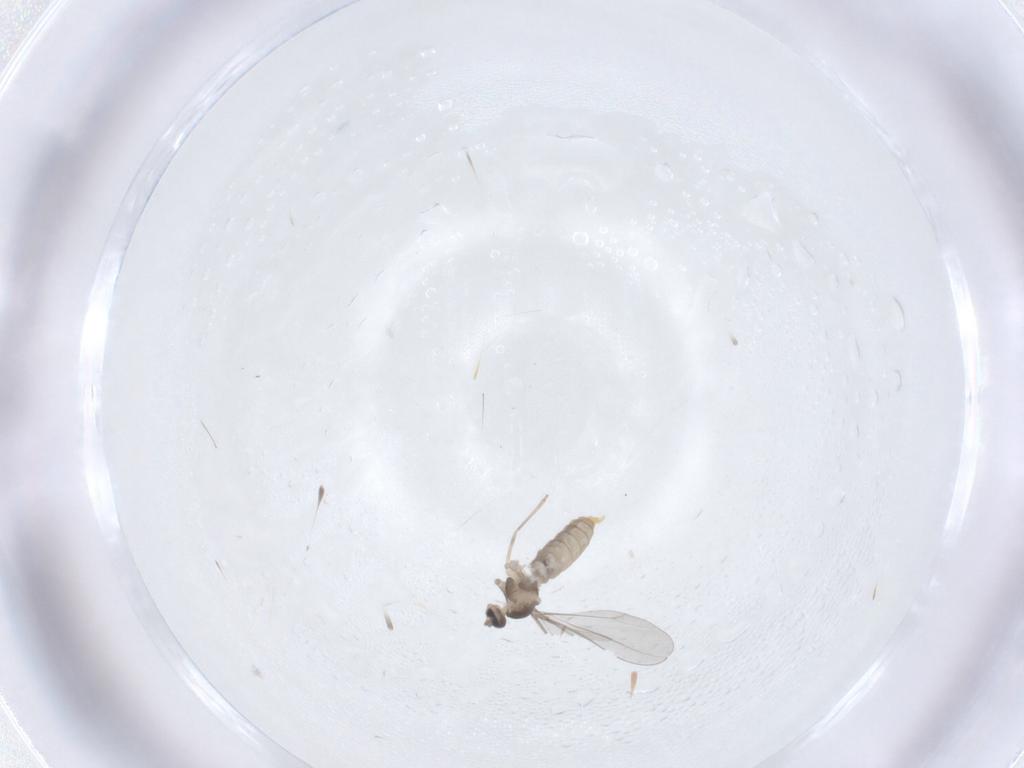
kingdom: Animalia
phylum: Arthropoda
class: Insecta
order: Diptera
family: Cecidomyiidae
